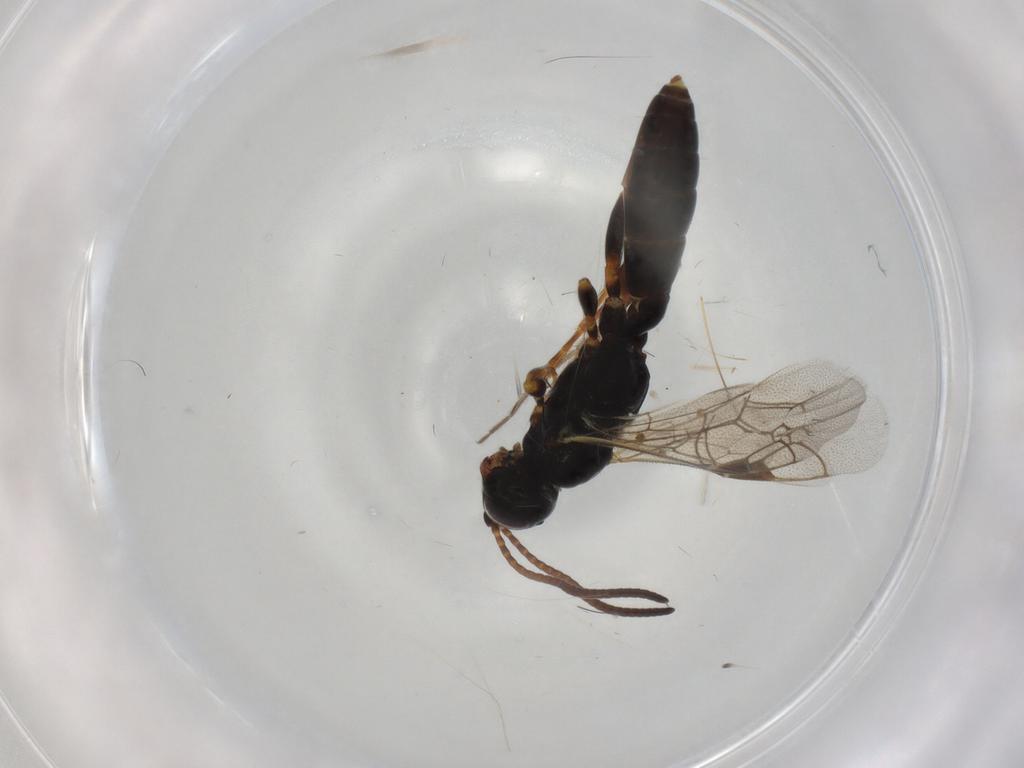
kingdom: Animalia
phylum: Arthropoda
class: Insecta
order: Hymenoptera
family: Ichneumonidae
